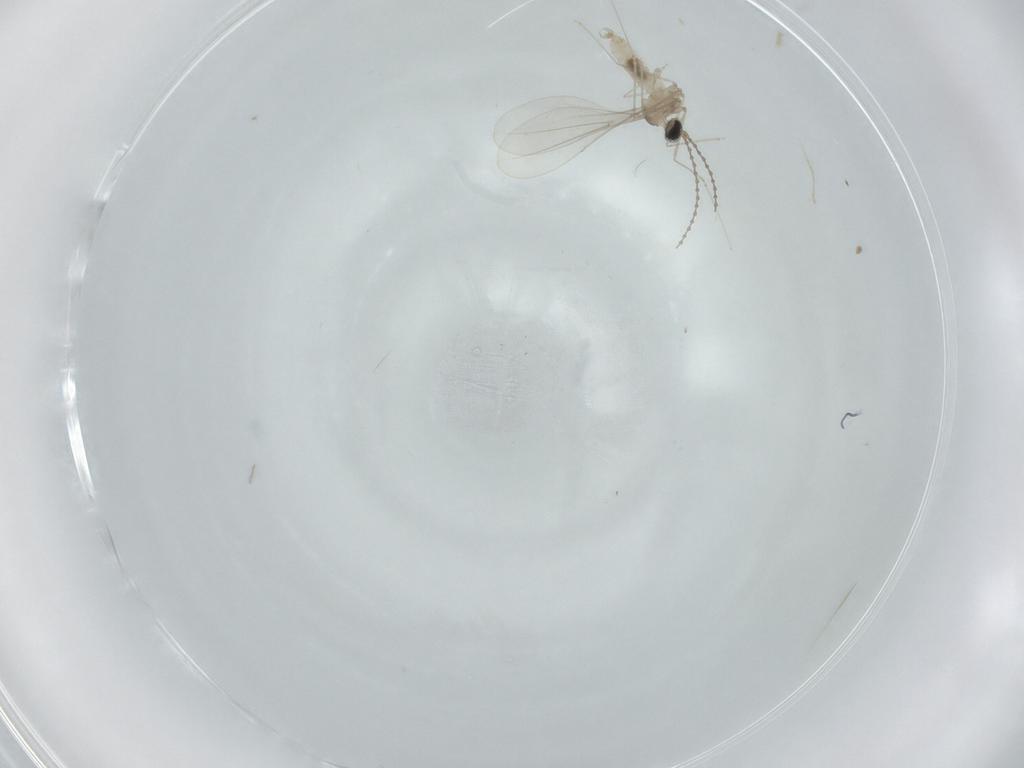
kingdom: Animalia
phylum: Arthropoda
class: Insecta
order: Diptera
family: Cecidomyiidae
